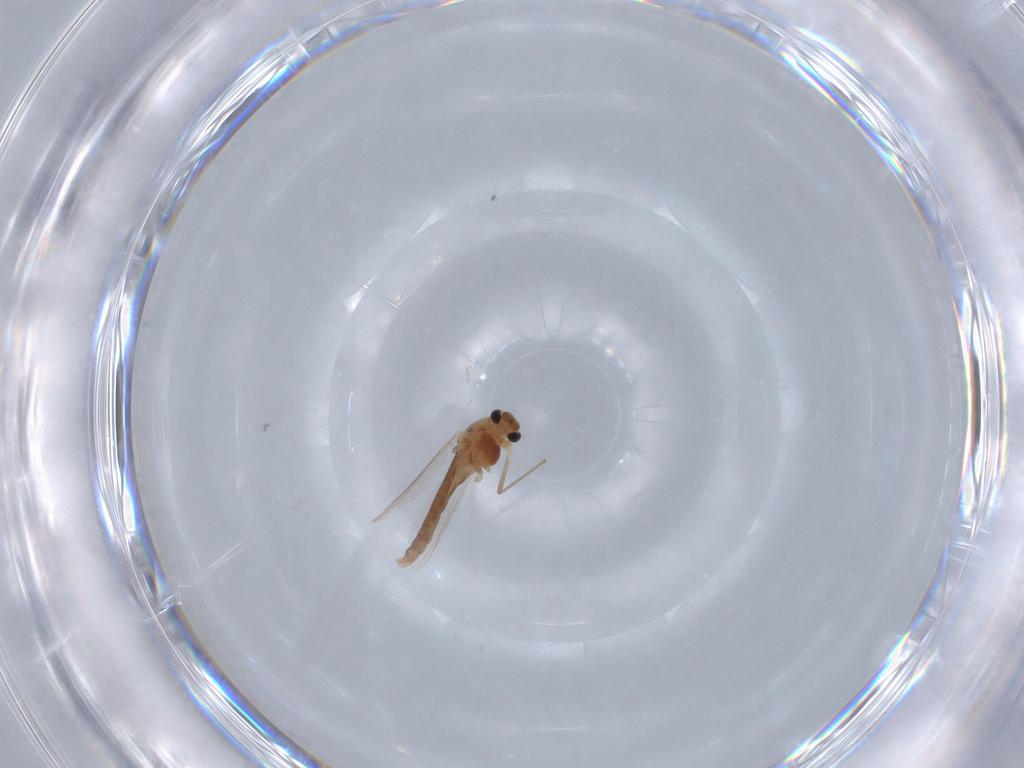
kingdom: Animalia
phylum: Arthropoda
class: Insecta
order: Diptera
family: Chironomidae
